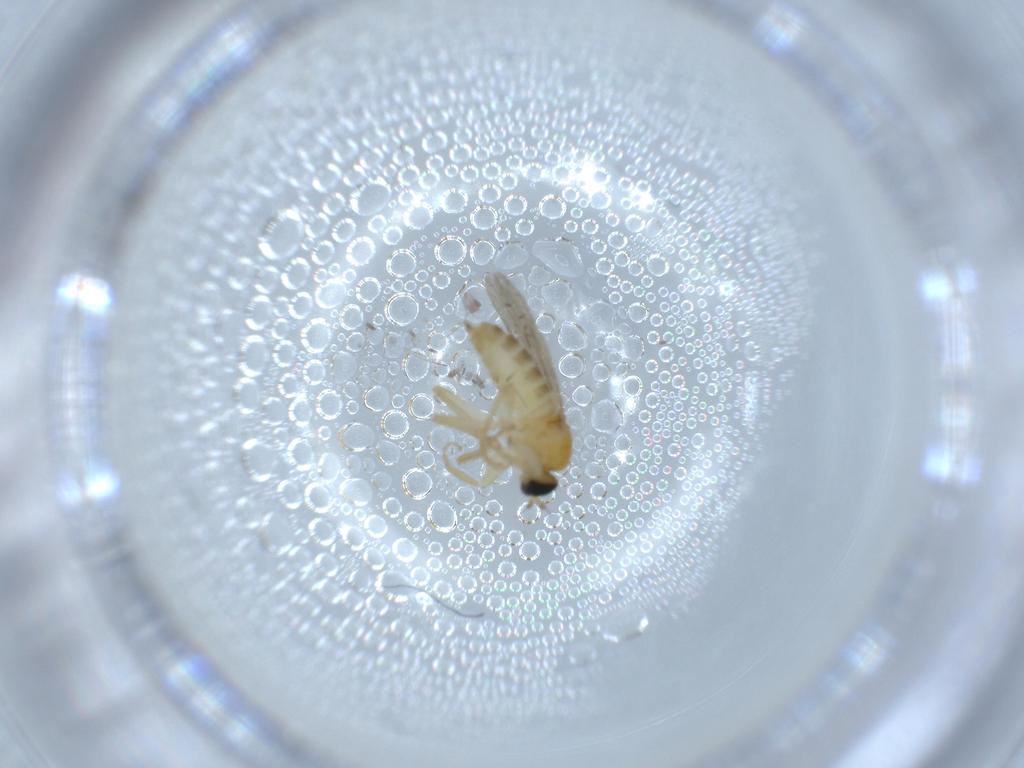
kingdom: Animalia
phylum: Arthropoda
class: Insecta
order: Diptera
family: Hybotidae
